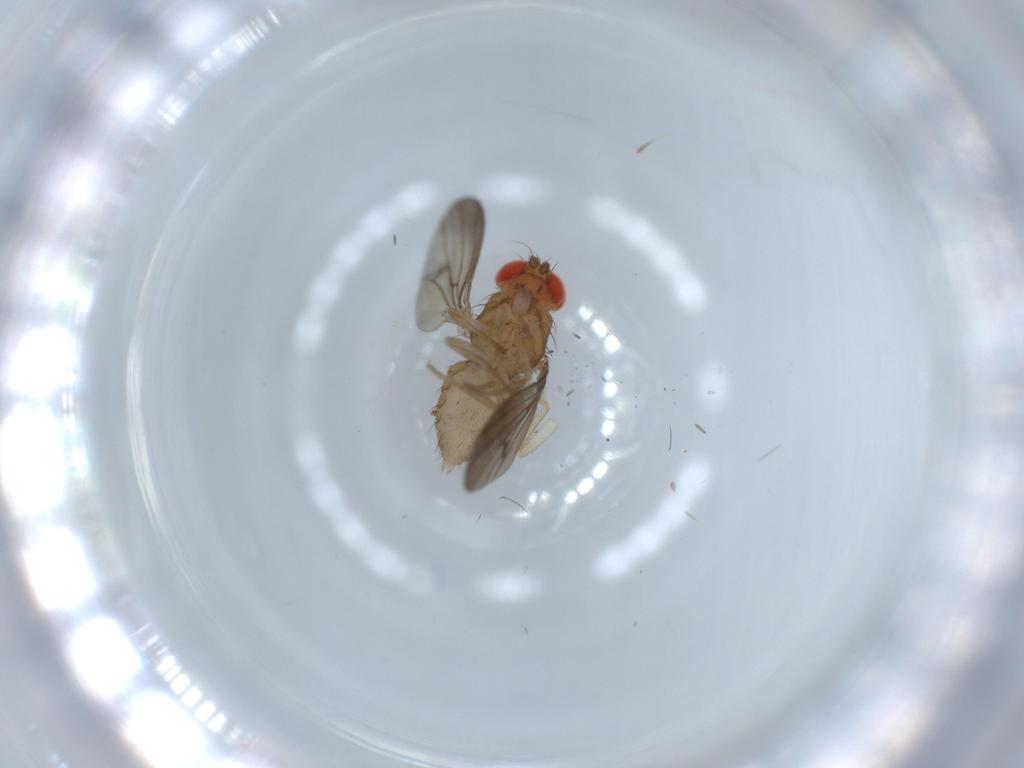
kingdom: Animalia
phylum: Arthropoda
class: Insecta
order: Diptera
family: Drosophilidae
